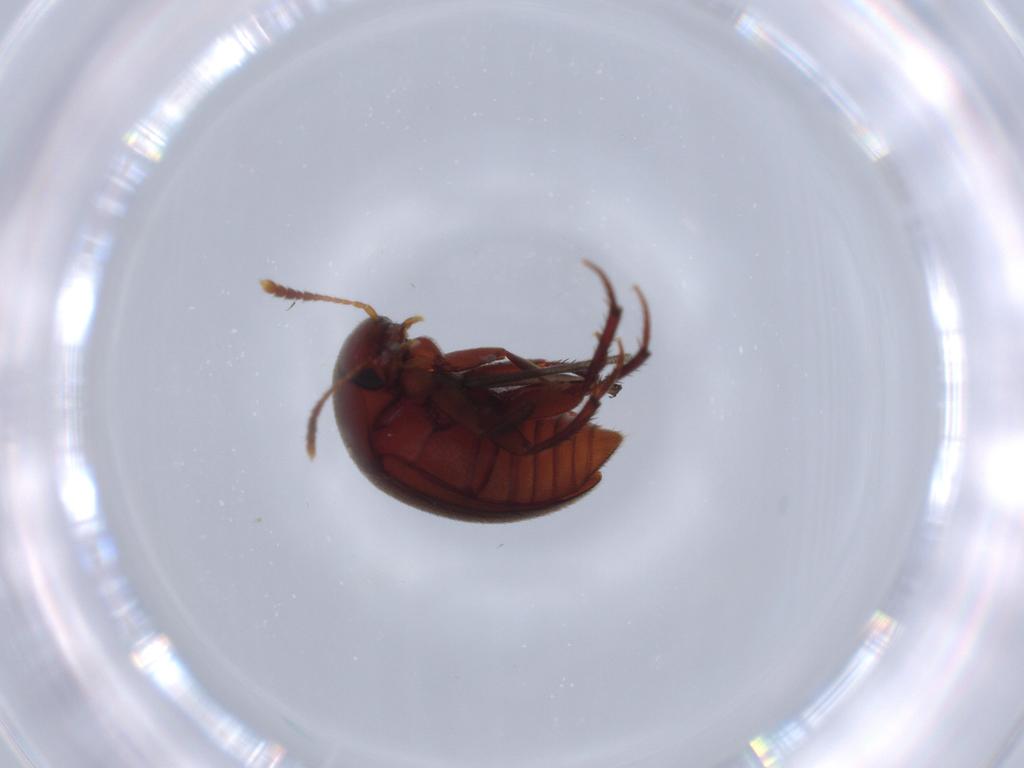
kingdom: Animalia
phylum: Arthropoda
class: Insecta
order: Coleoptera
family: Leiodidae
